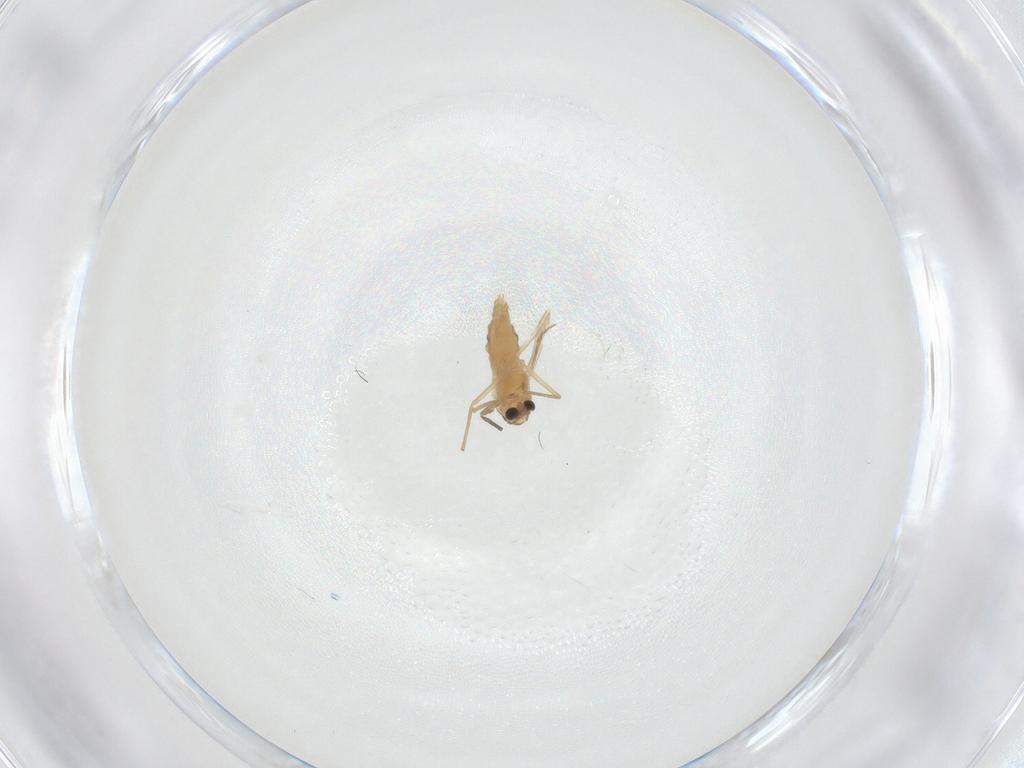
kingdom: Animalia
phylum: Arthropoda
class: Insecta
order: Diptera
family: Chironomidae
